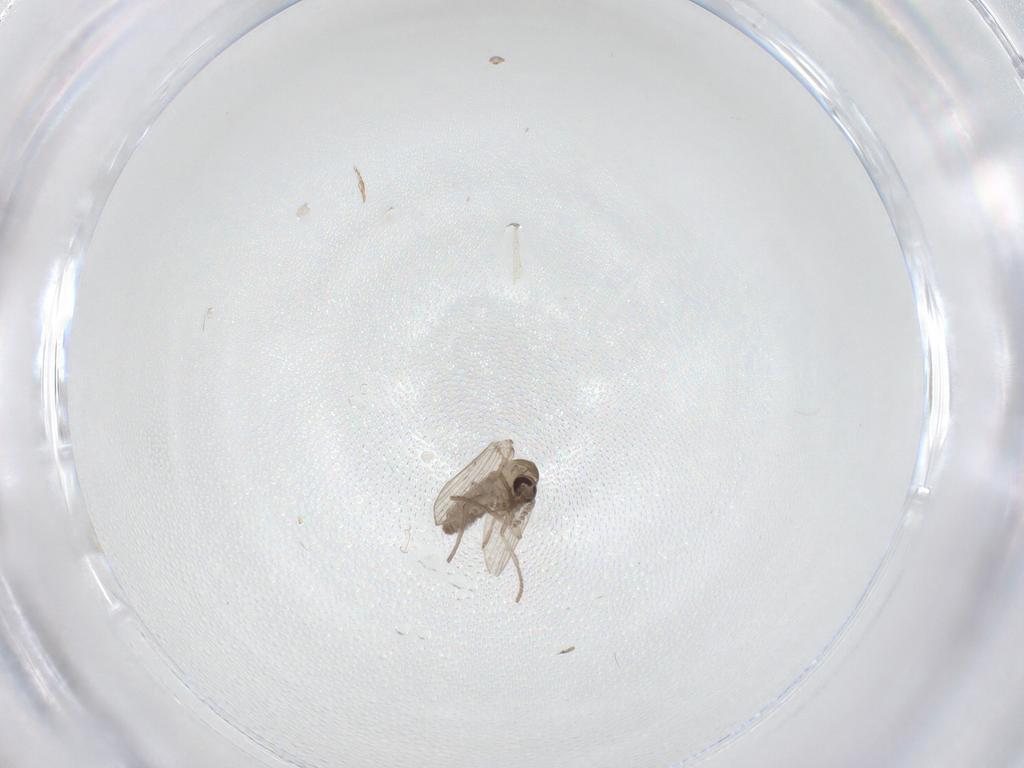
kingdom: Animalia
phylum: Arthropoda
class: Insecta
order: Diptera
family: Psychodidae
